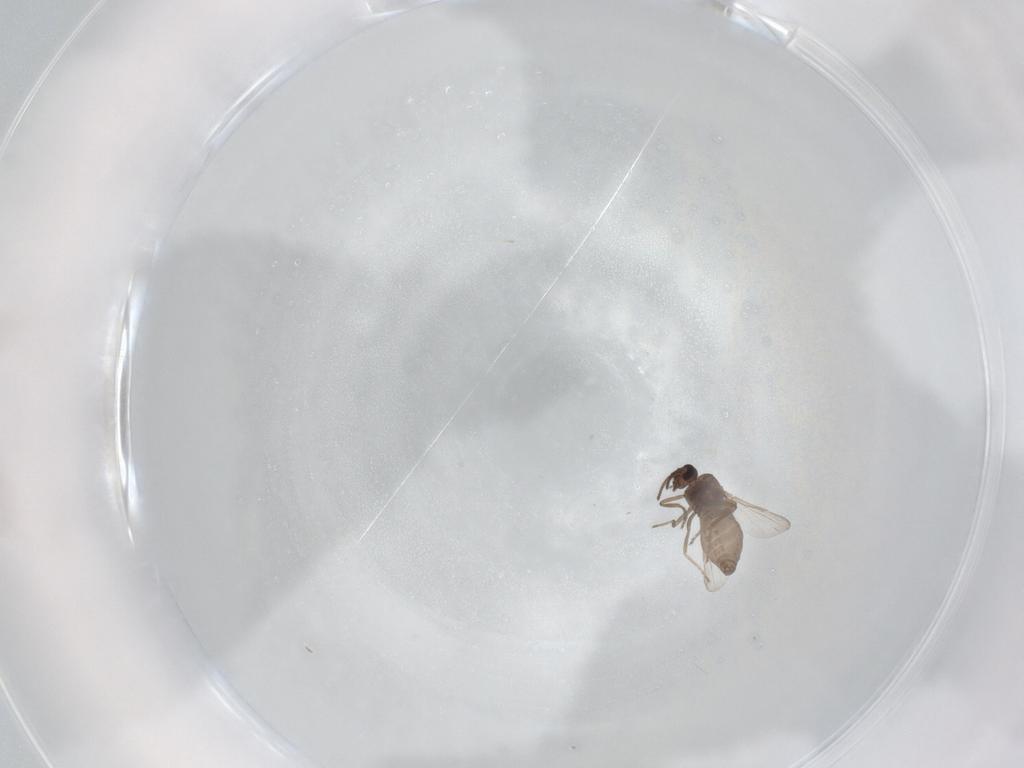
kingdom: Animalia
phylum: Arthropoda
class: Insecta
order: Diptera
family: Ceratopogonidae
